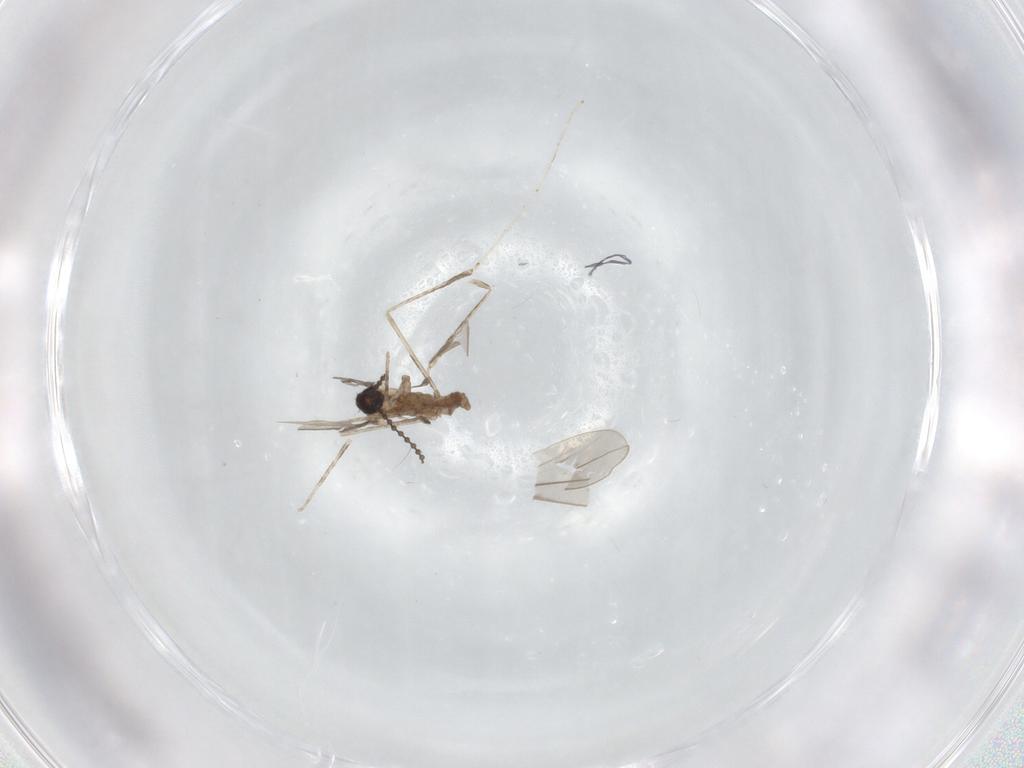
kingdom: Animalia
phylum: Arthropoda
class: Insecta
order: Diptera
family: Cecidomyiidae
